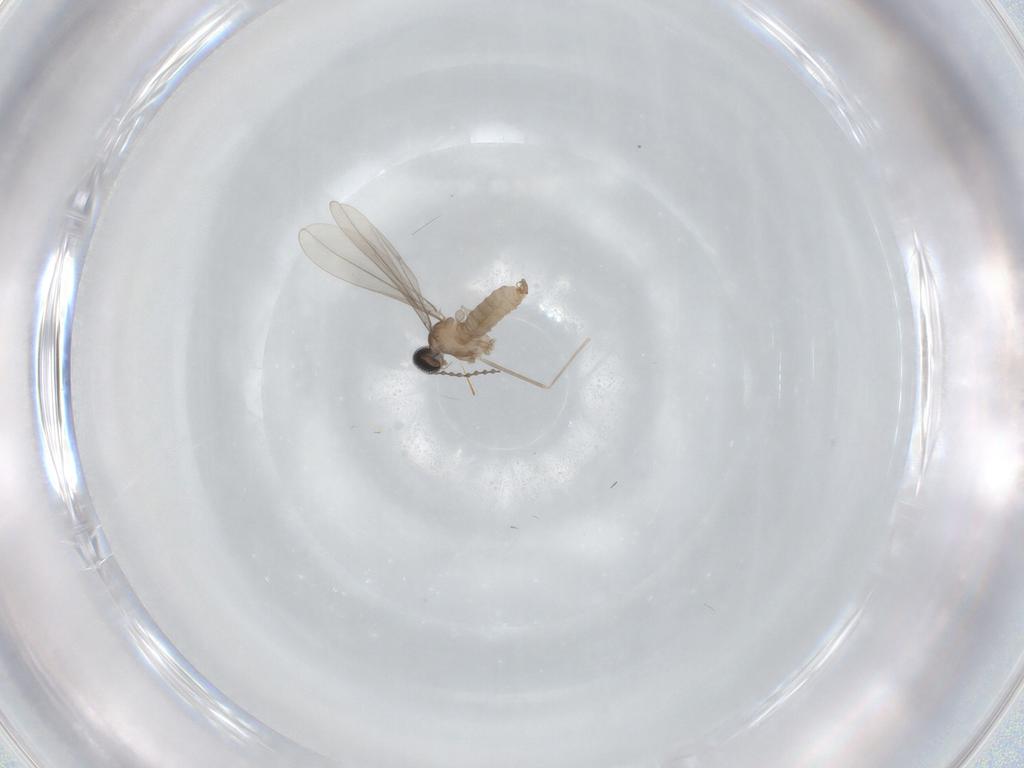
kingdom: Animalia
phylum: Arthropoda
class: Insecta
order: Diptera
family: Cecidomyiidae
